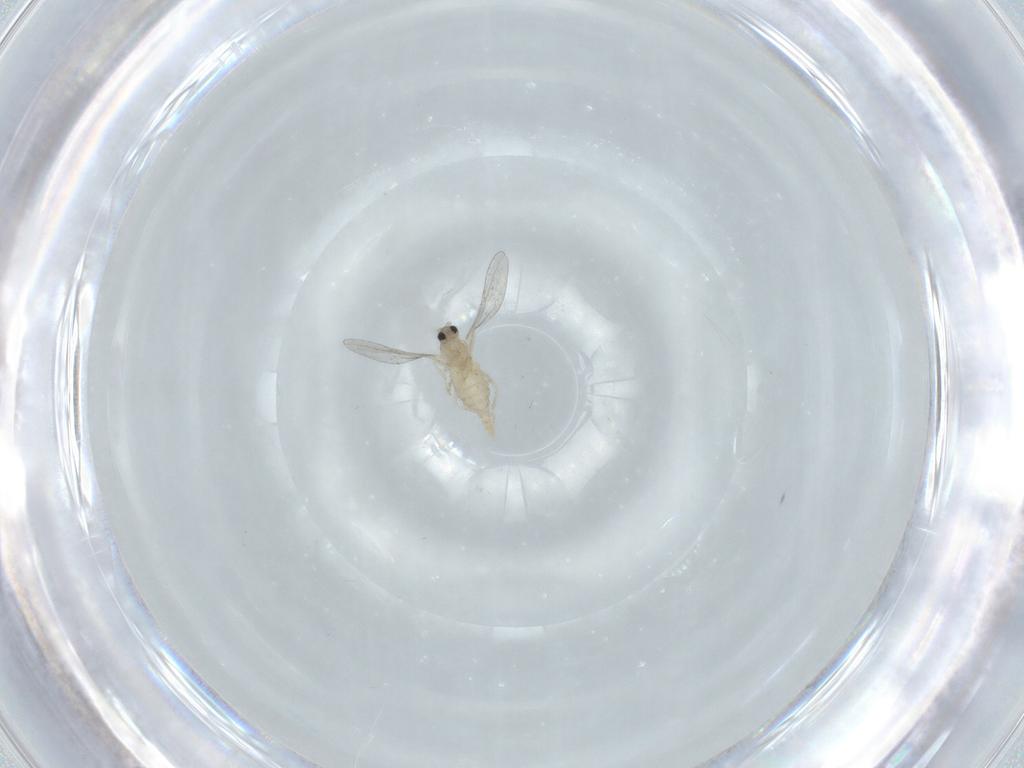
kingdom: Animalia
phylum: Arthropoda
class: Insecta
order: Diptera
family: Cecidomyiidae
